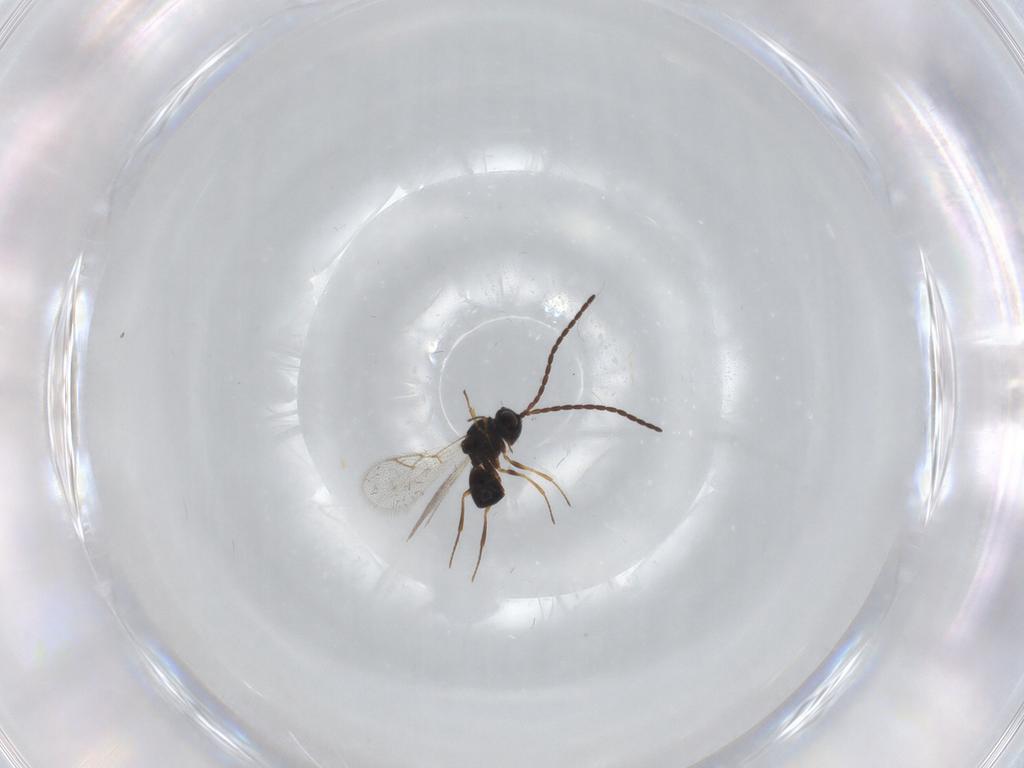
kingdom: Animalia
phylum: Arthropoda
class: Insecta
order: Hymenoptera
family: Figitidae
